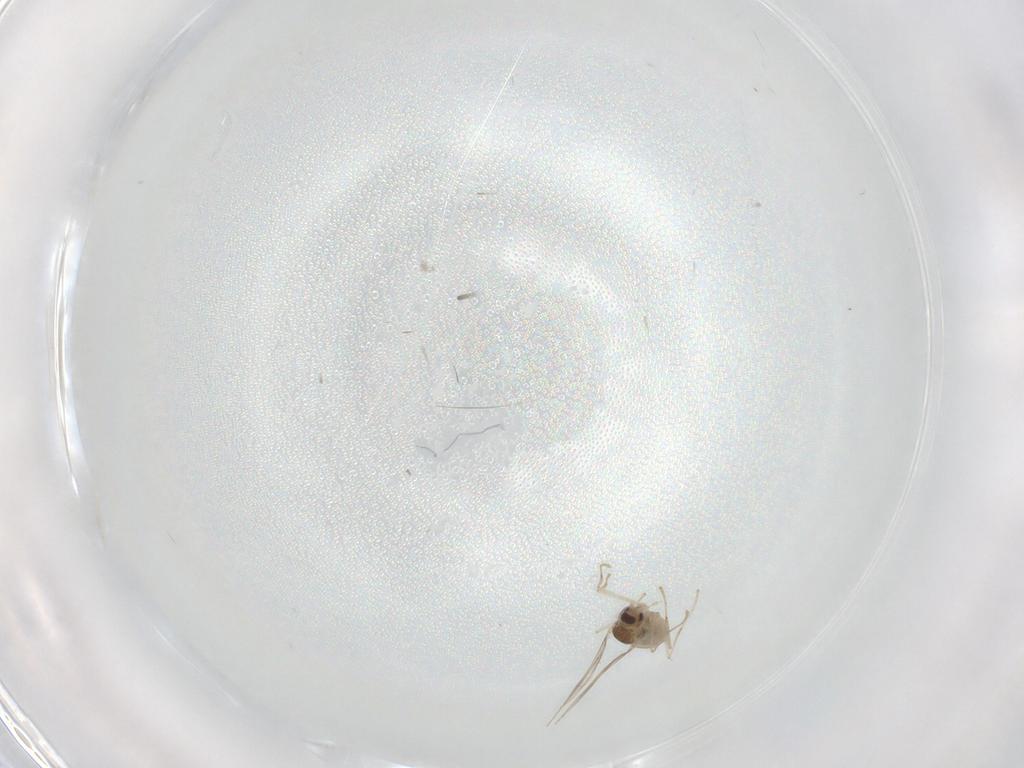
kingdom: Animalia
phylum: Arthropoda
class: Insecta
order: Diptera
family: Cecidomyiidae
